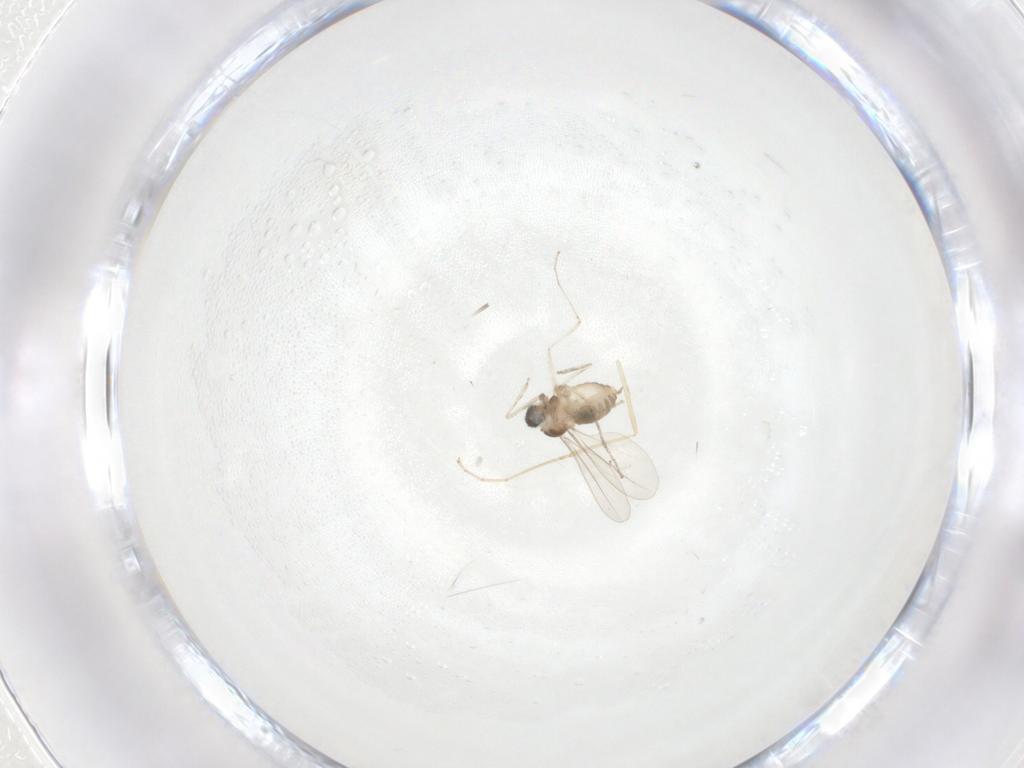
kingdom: Animalia
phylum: Arthropoda
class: Insecta
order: Diptera
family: Cecidomyiidae
